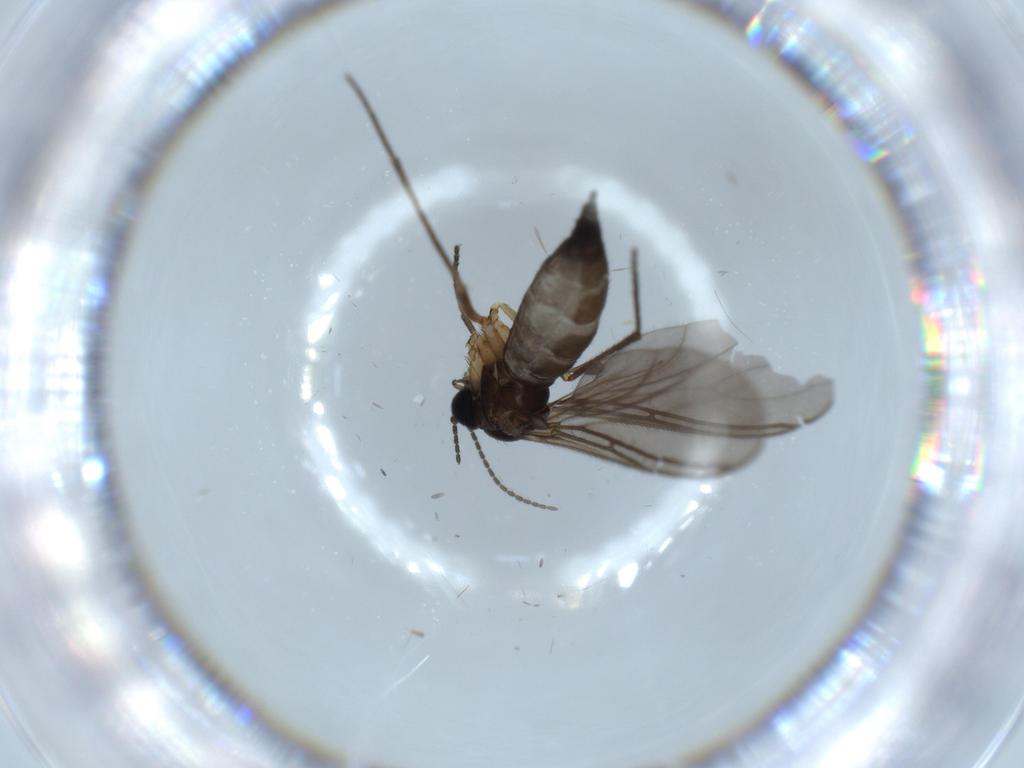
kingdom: Animalia
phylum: Arthropoda
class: Insecta
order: Diptera
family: Sciaridae
